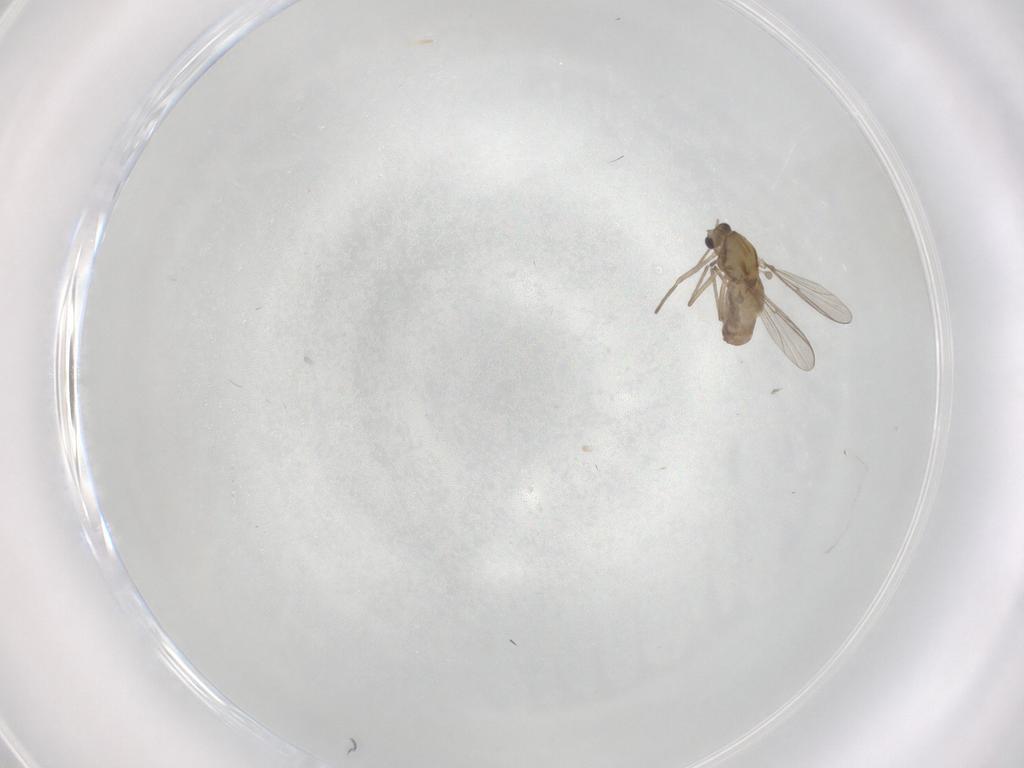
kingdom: Animalia
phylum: Arthropoda
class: Insecta
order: Diptera
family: Chironomidae
